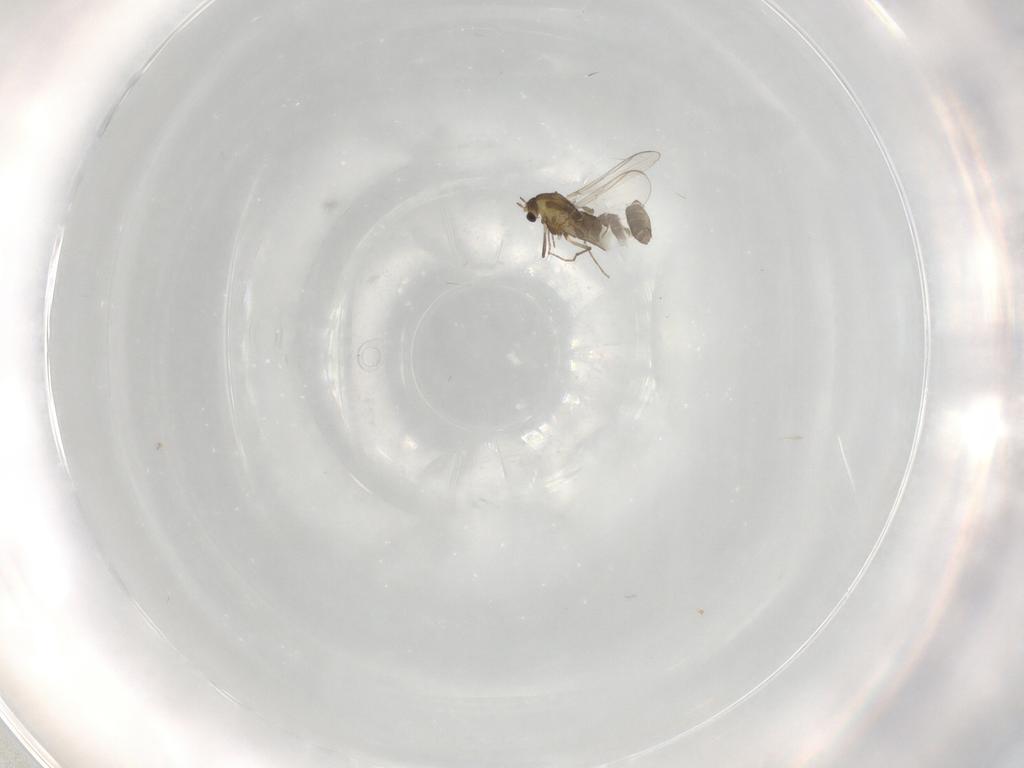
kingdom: Animalia
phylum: Arthropoda
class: Insecta
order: Diptera
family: Chironomidae
